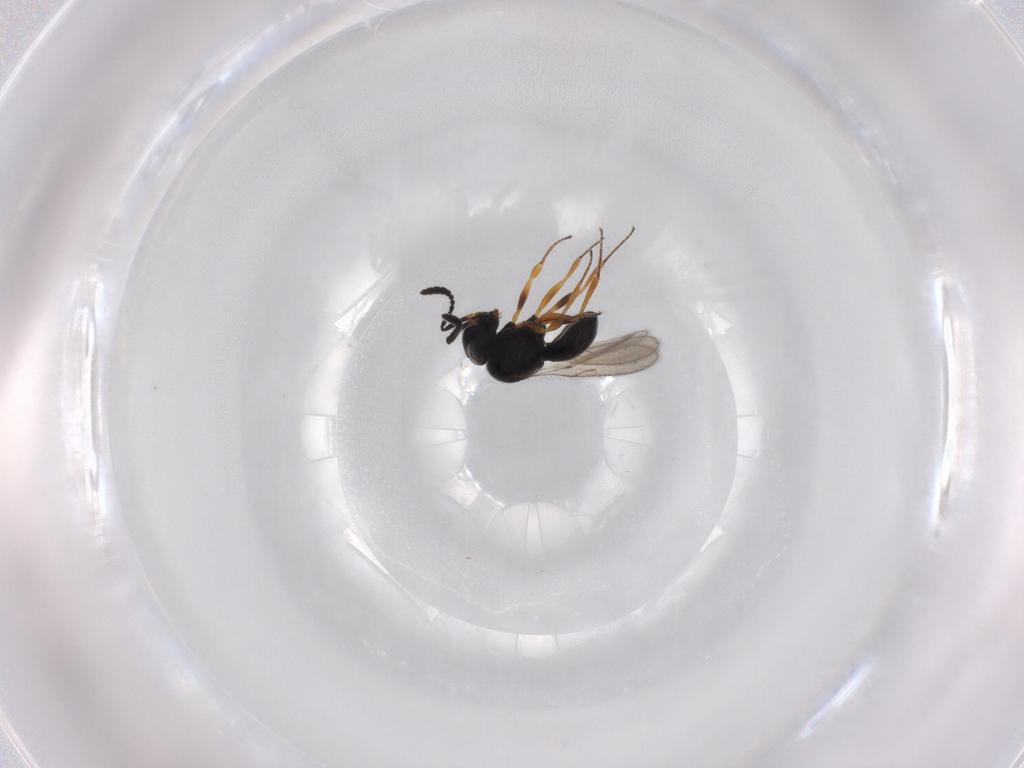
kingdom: Animalia
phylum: Arthropoda
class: Insecta
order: Hymenoptera
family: Scelionidae
